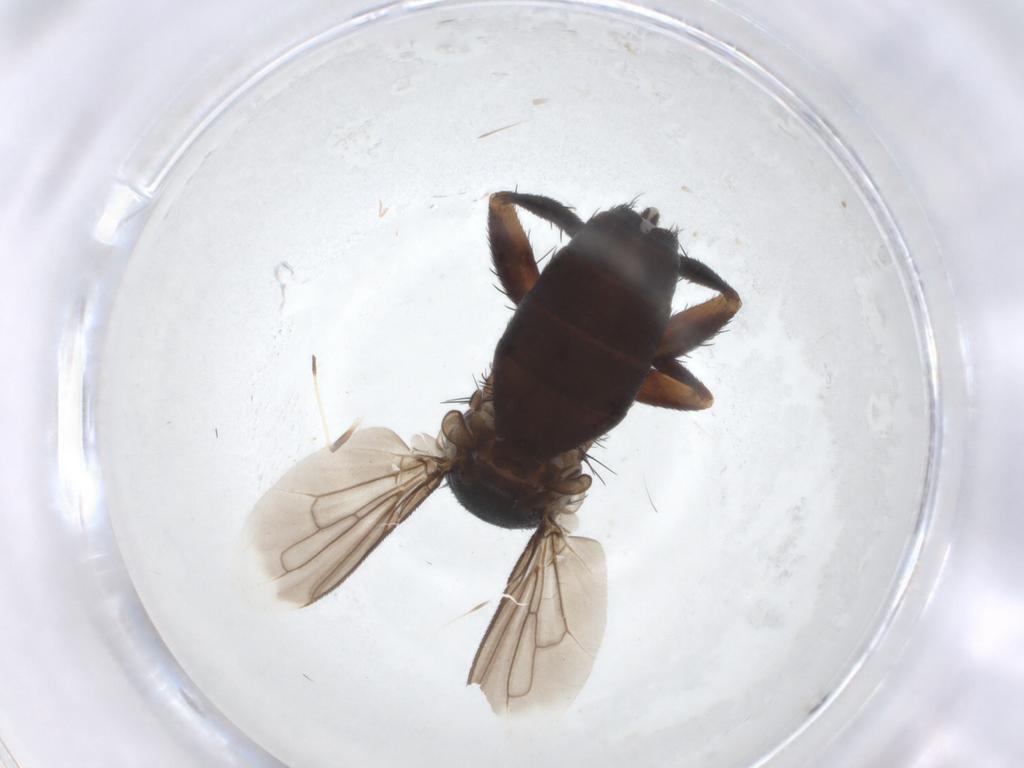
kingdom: Animalia
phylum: Arthropoda
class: Insecta
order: Diptera
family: Tachinidae
